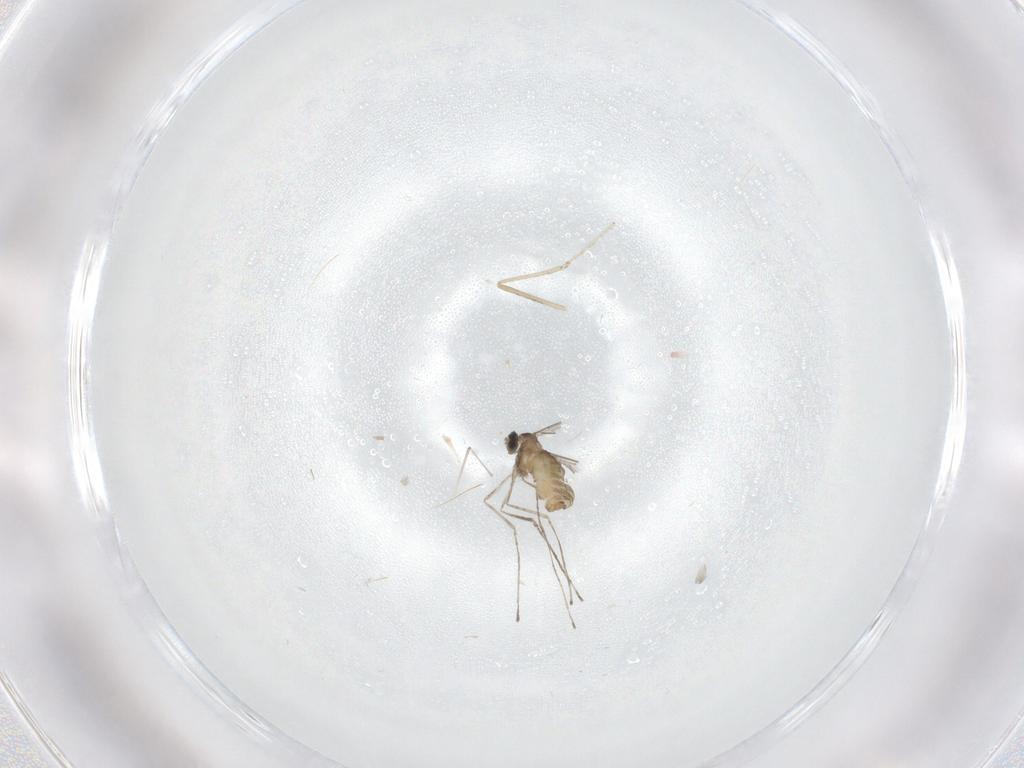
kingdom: Animalia
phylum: Arthropoda
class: Insecta
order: Diptera
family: Cecidomyiidae
